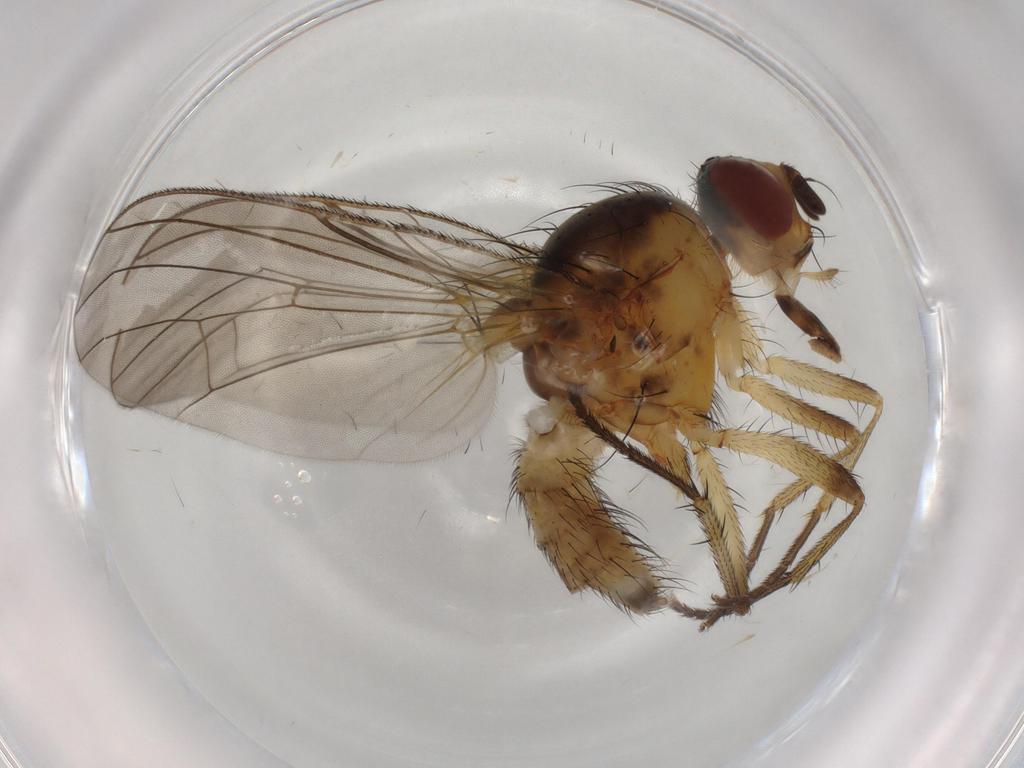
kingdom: Animalia
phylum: Arthropoda
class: Insecta
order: Diptera
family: Anthomyiidae
